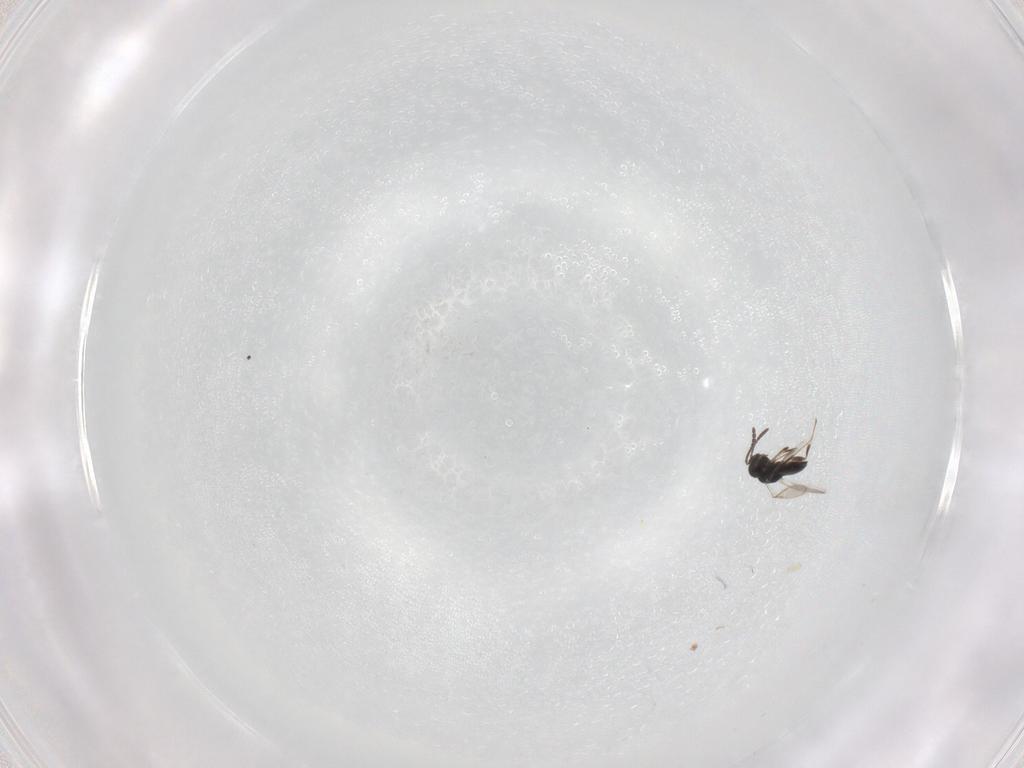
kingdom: Animalia
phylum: Arthropoda
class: Insecta
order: Hymenoptera
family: Scelionidae
